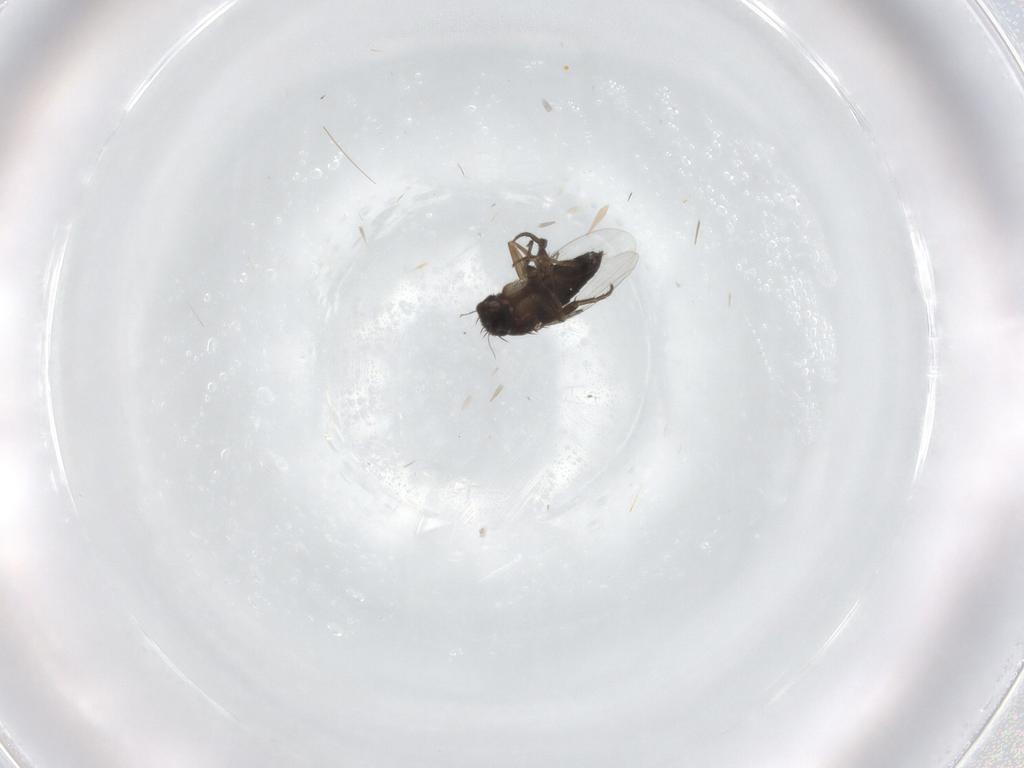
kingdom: Animalia
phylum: Arthropoda
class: Insecta
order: Diptera
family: Phoridae
